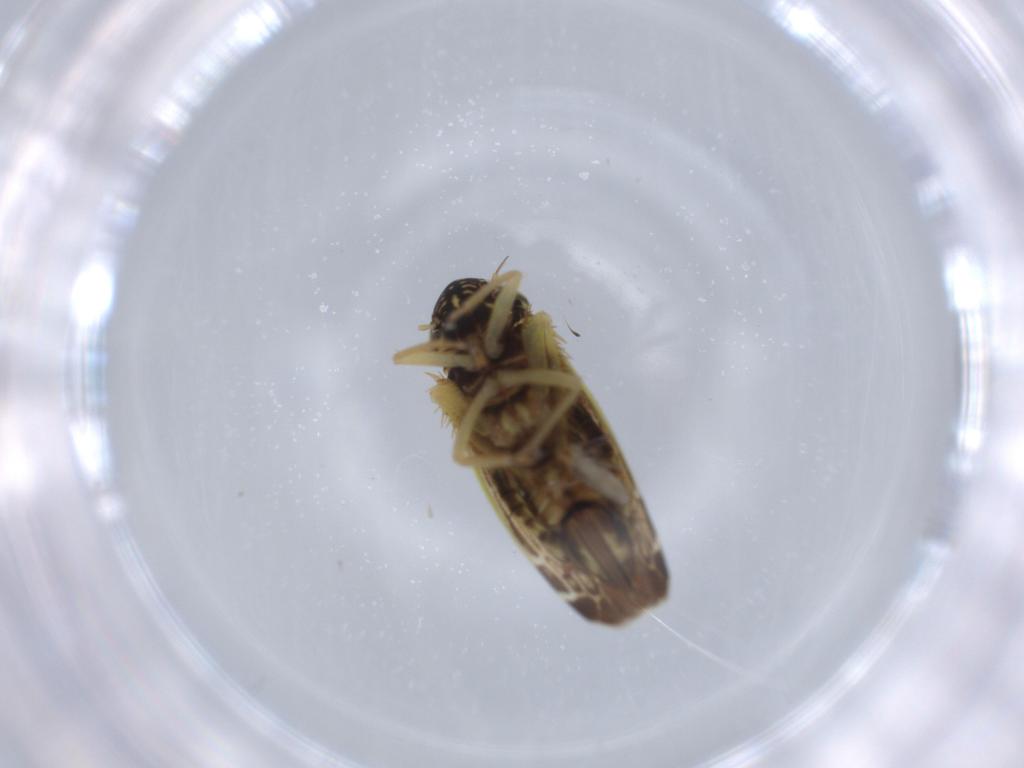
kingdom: Animalia
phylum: Arthropoda
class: Insecta
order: Hemiptera
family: Cicadellidae
